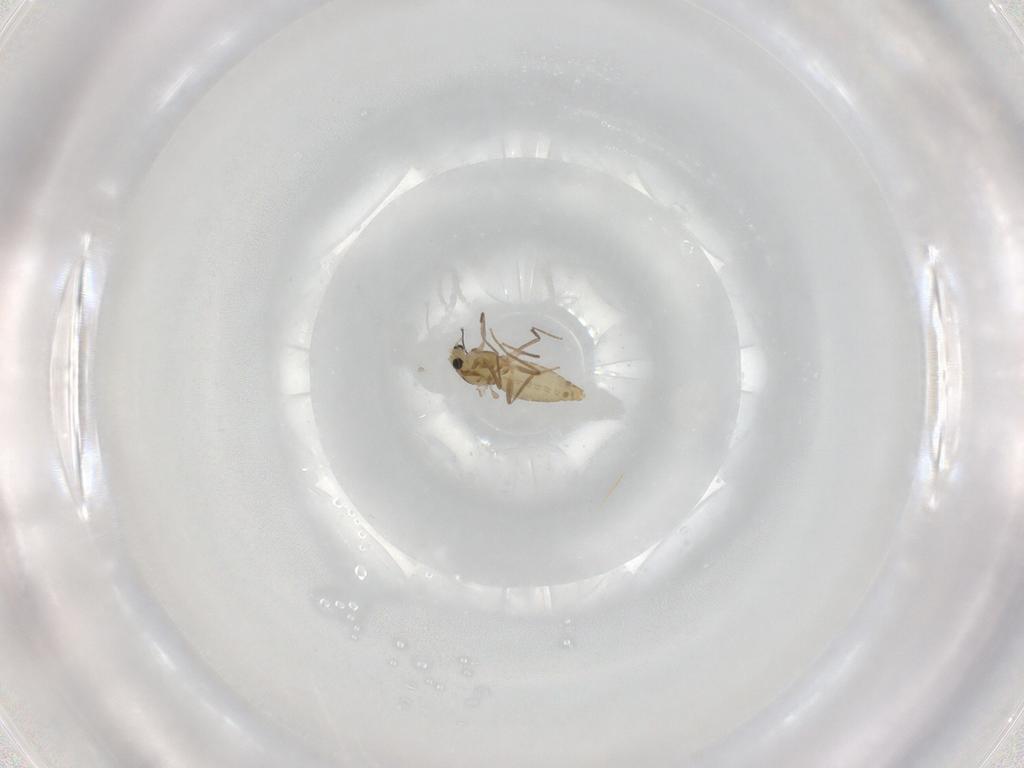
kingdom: Animalia
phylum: Arthropoda
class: Insecta
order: Diptera
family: Chironomidae
